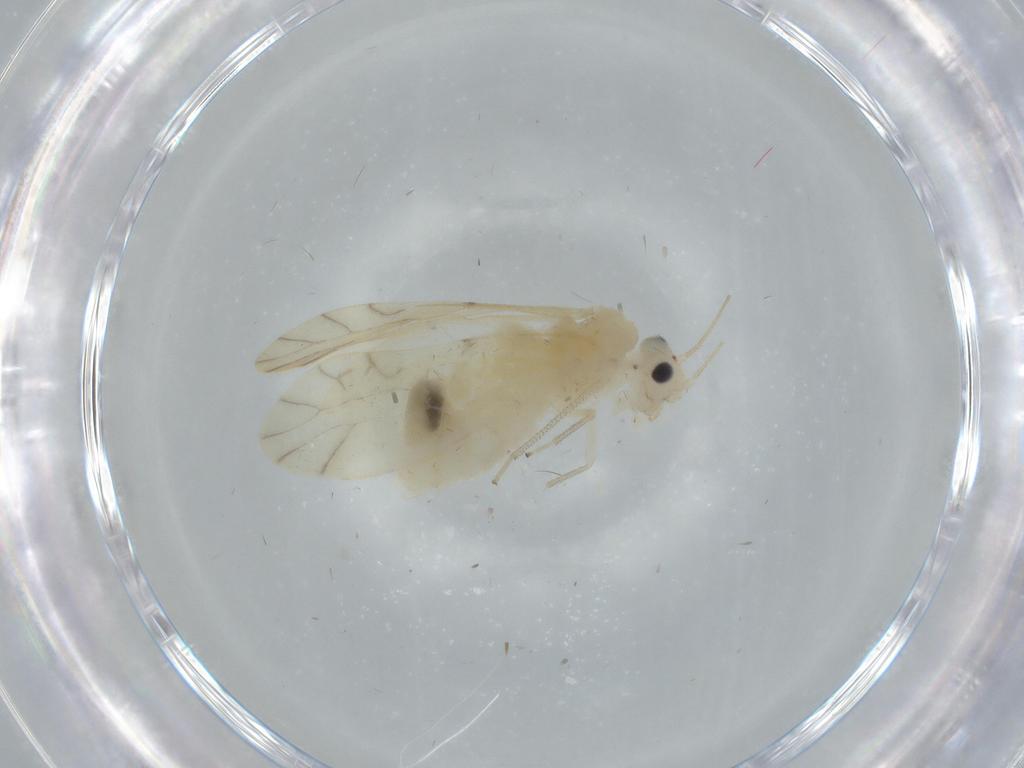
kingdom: Animalia
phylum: Arthropoda
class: Insecta
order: Psocodea
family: Caeciliusidae
